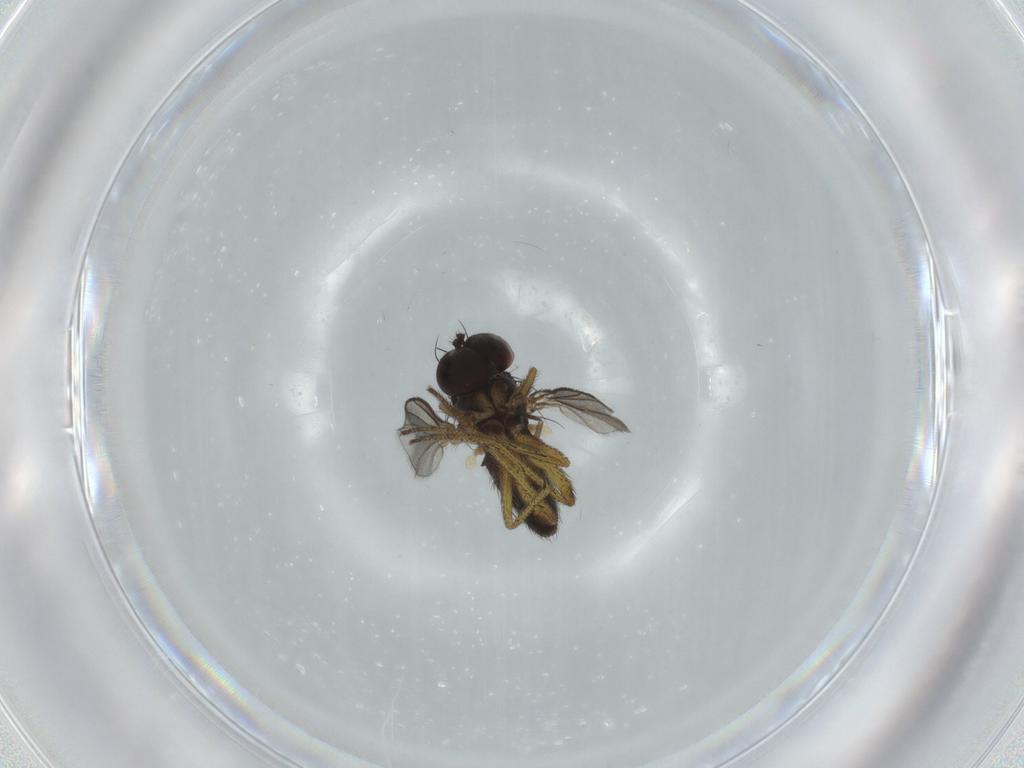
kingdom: Animalia
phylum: Arthropoda
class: Insecta
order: Diptera
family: Dolichopodidae
